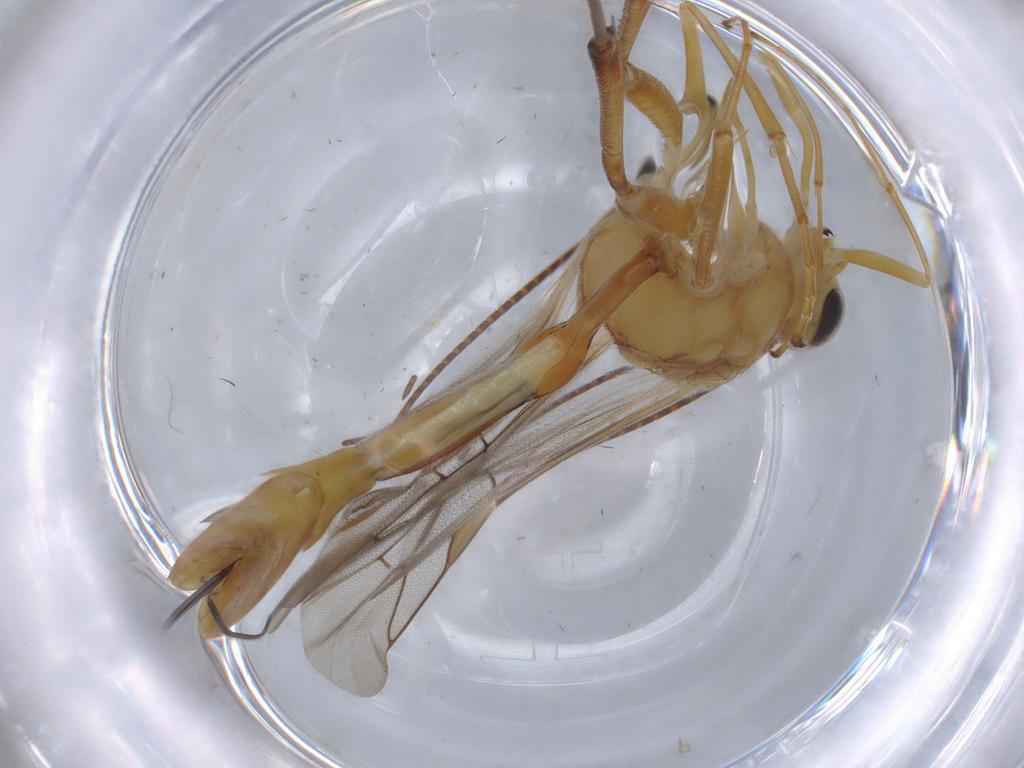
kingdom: Animalia
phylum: Arthropoda
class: Insecta
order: Hymenoptera
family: Ichneumonidae
